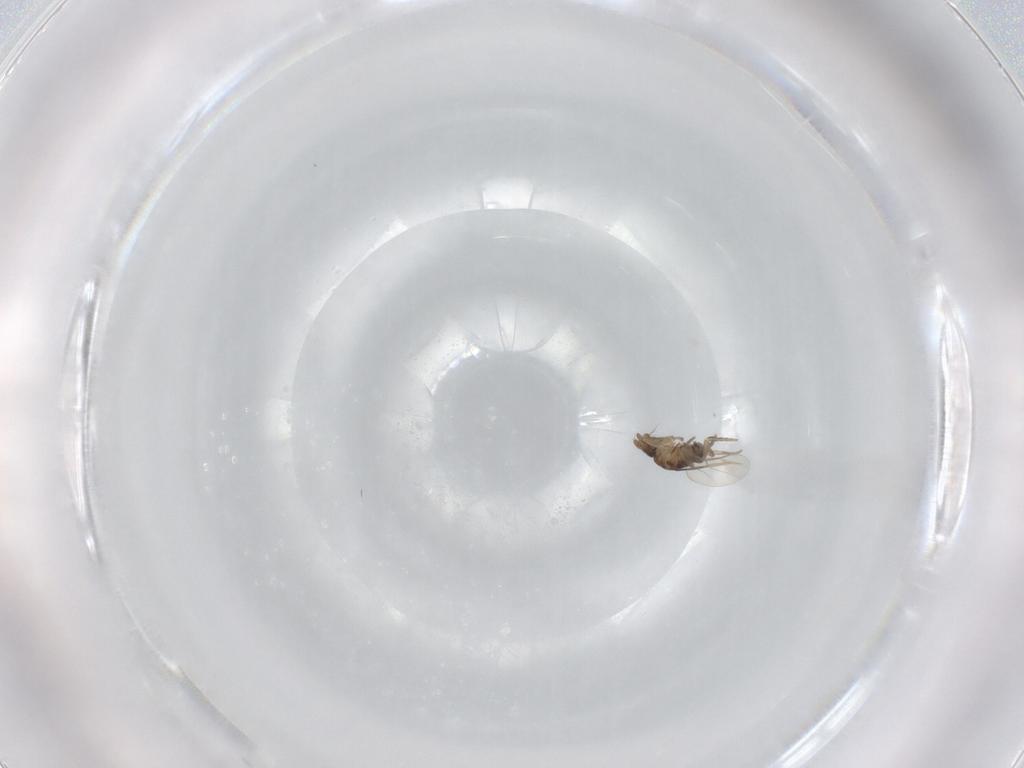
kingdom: Animalia
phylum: Arthropoda
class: Insecta
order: Diptera
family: Phoridae
